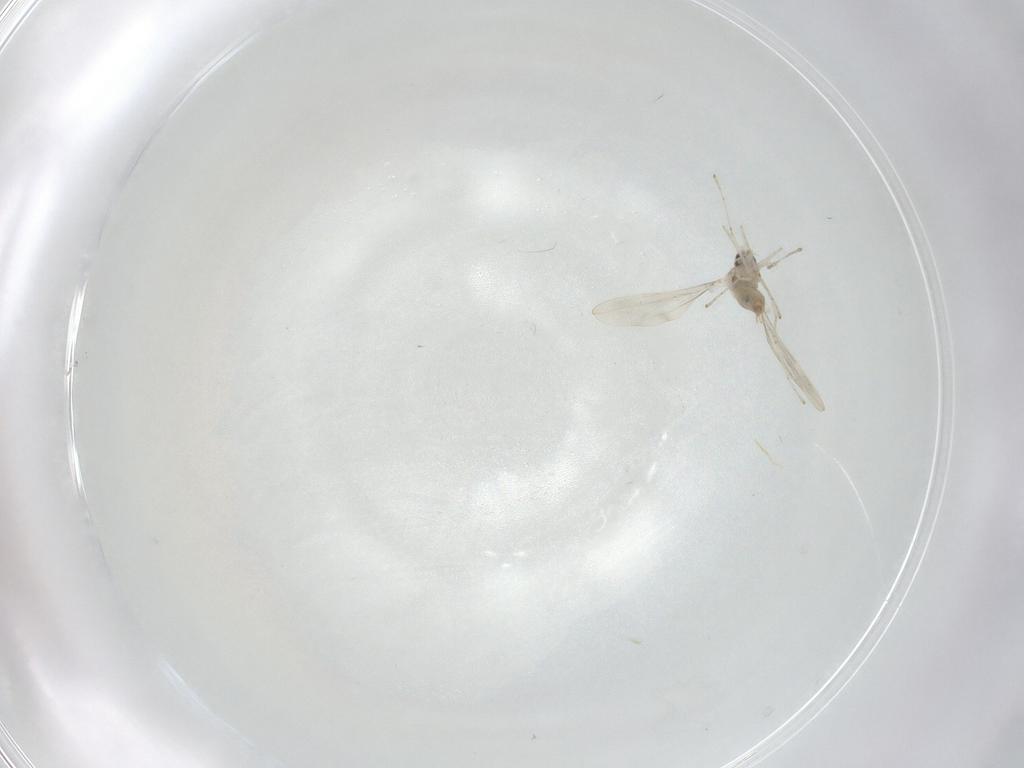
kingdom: Animalia
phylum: Arthropoda
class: Insecta
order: Diptera
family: Cecidomyiidae
